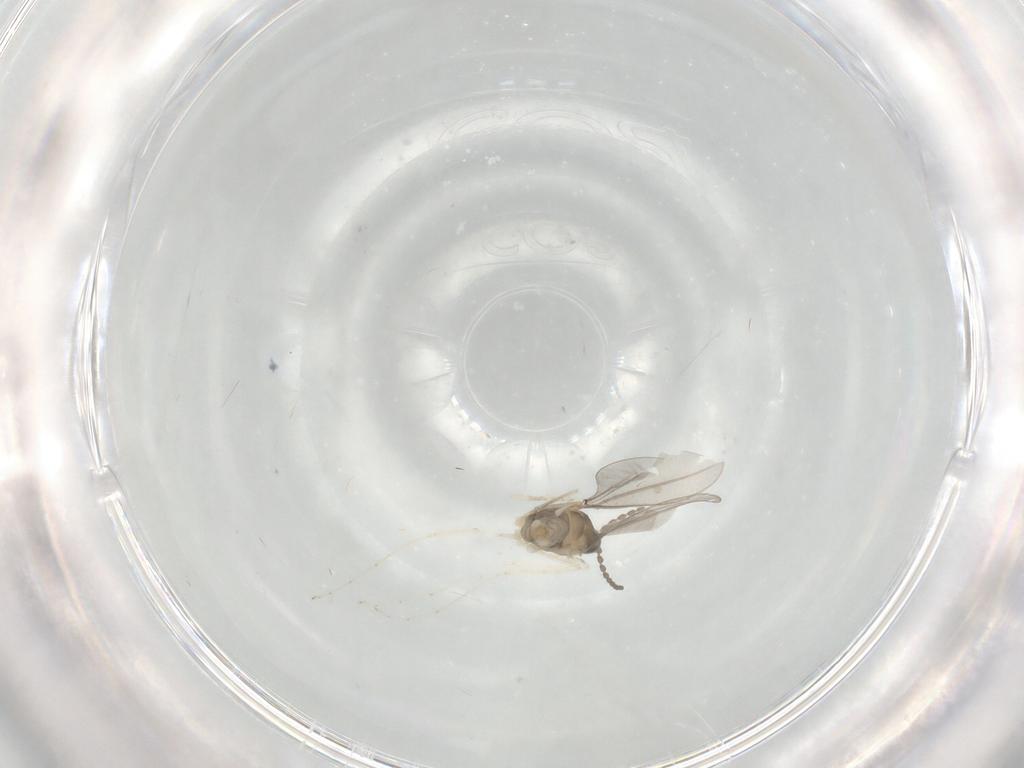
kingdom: Animalia
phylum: Arthropoda
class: Insecta
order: Diptera
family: Cecidomyiidae
